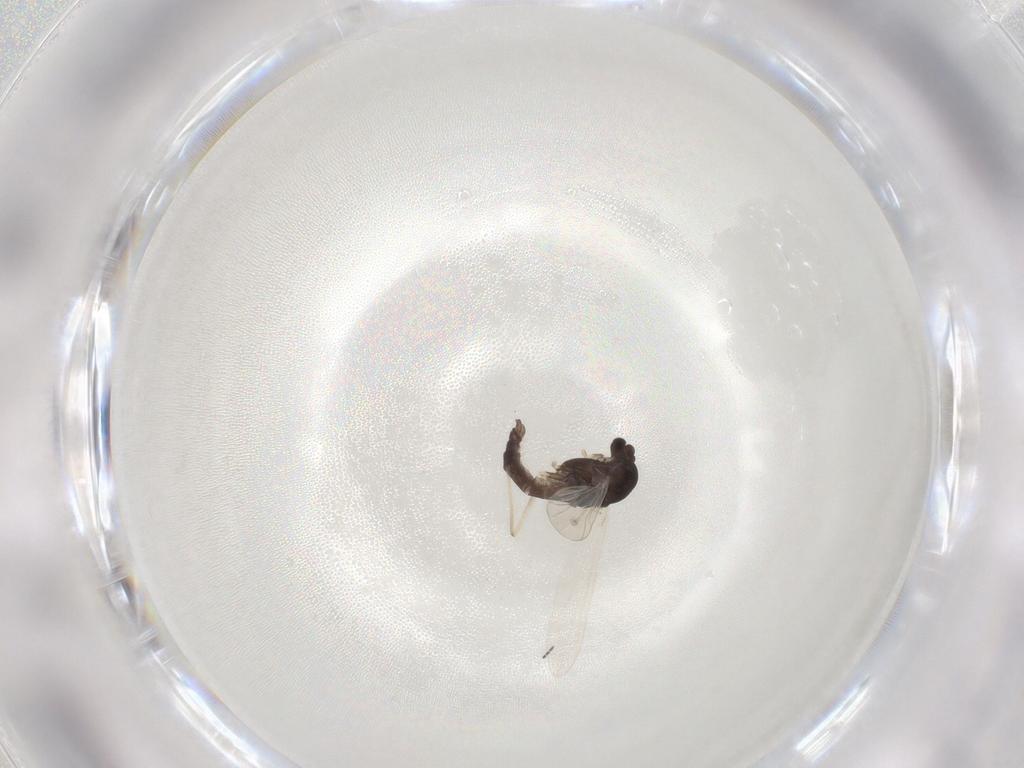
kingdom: Animalia
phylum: Arthropoda
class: Insecta
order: Diptera
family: Chironomidae
